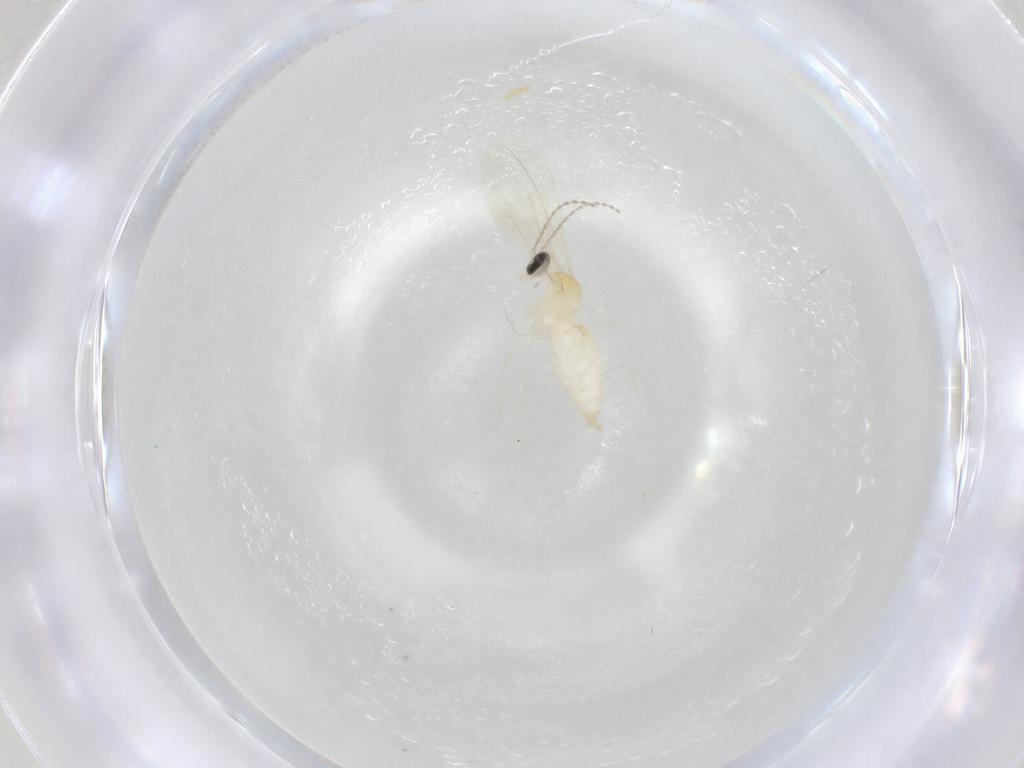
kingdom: Animalia
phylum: Arthropoda
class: Insecta
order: Diptera
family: Cecidomyiidae
